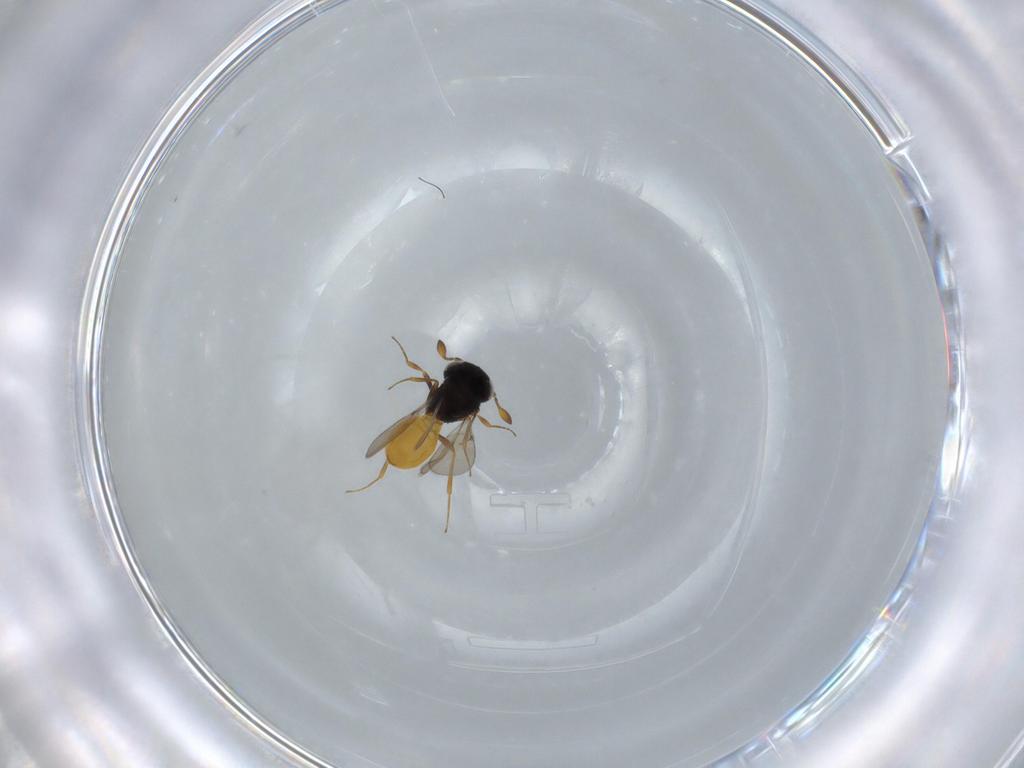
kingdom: Animalia
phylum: Arthropoda
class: Insecta
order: Hymenoptera
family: Scelionidae
